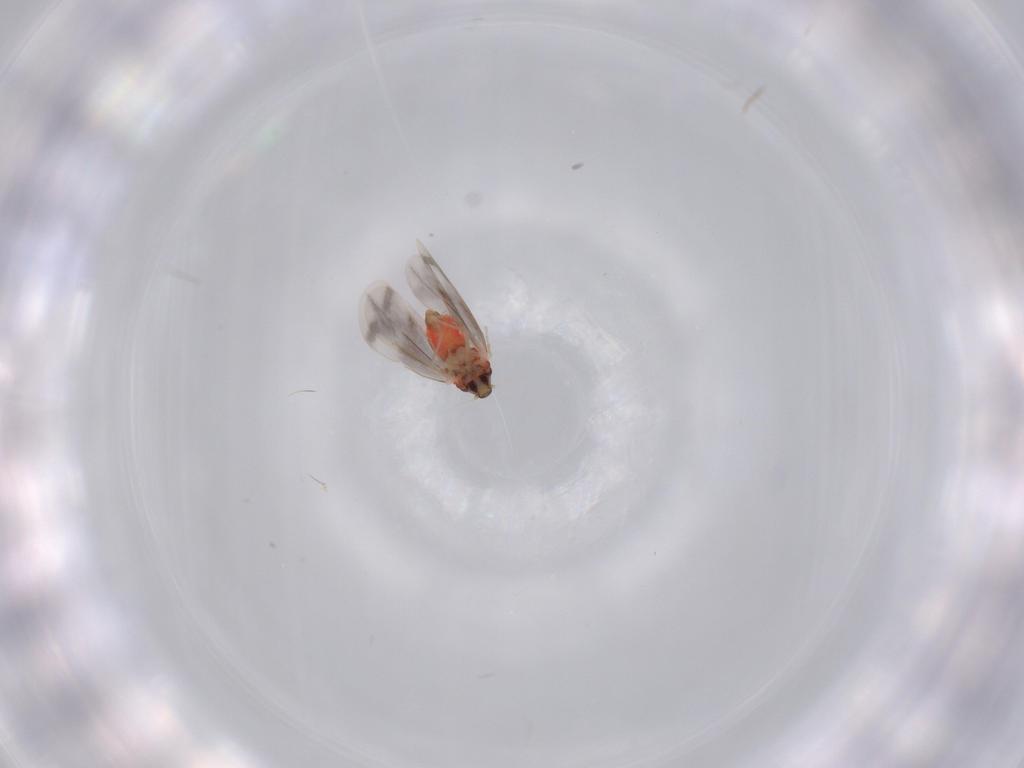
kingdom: Animalia
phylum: Arthropoda
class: Insecta
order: Hemiptera
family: Aleyrodidae
